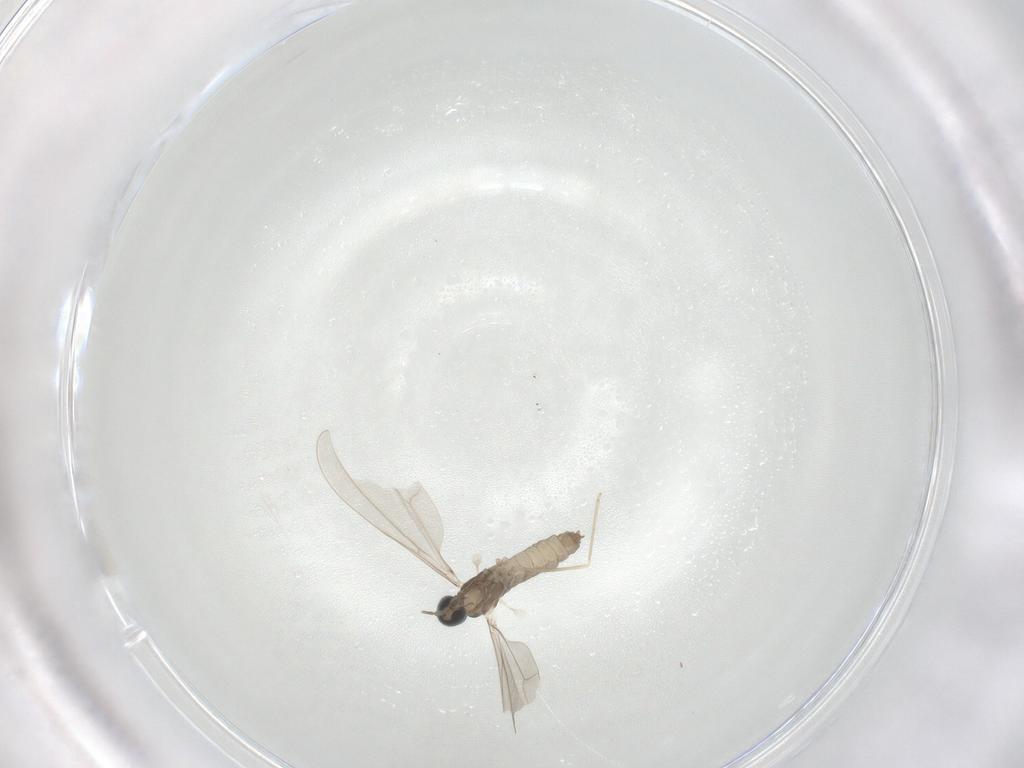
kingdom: Animalia
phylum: Arthropoda
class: Insecta
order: Diptera
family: Cecidomyiidae
